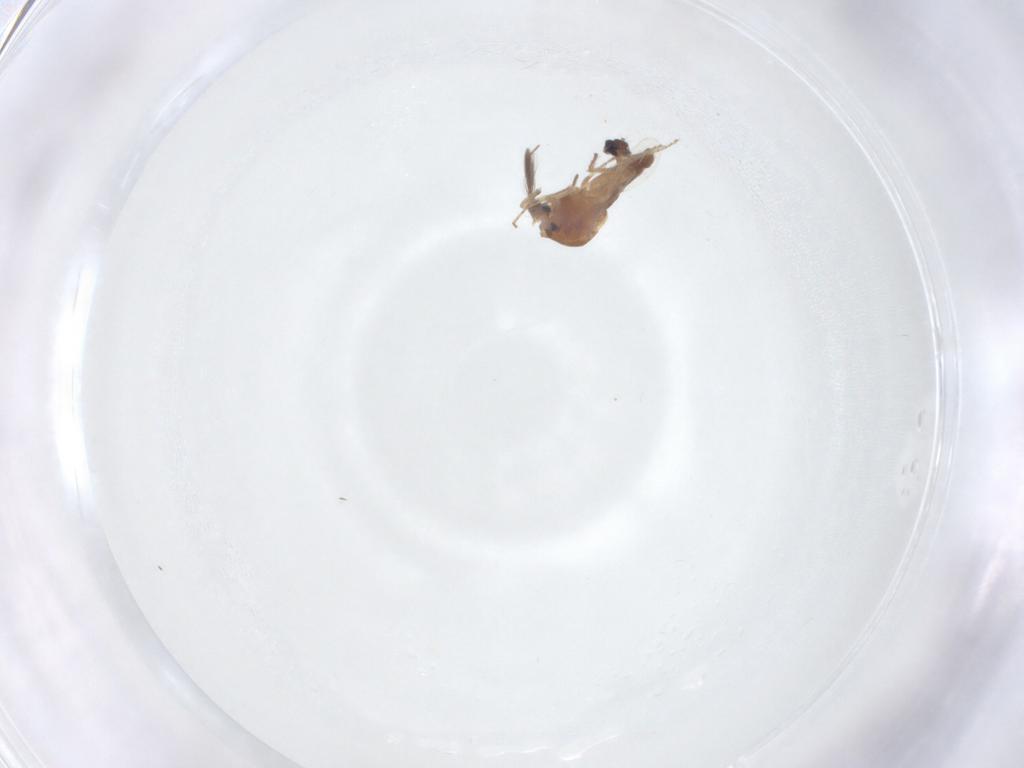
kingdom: Animalia
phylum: Arthropoda
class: Insecta
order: Diptera
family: Ceratopogonidae
